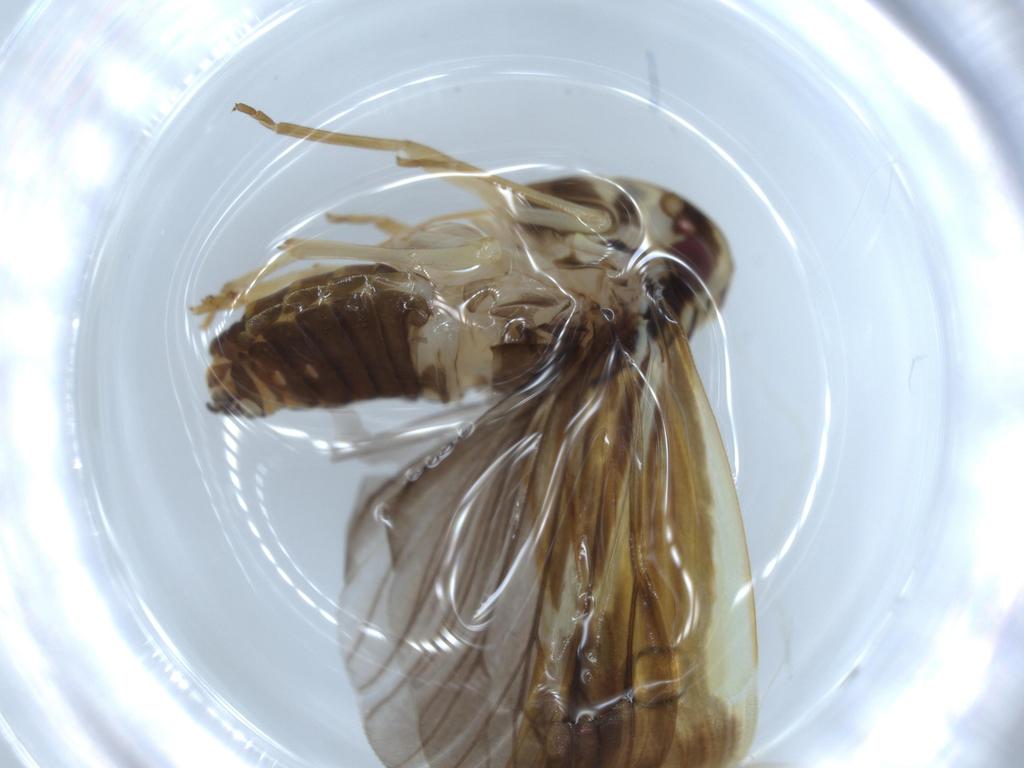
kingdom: Animalia
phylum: Arthropoda
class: Insecta
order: Hemiptera
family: Achilidae
